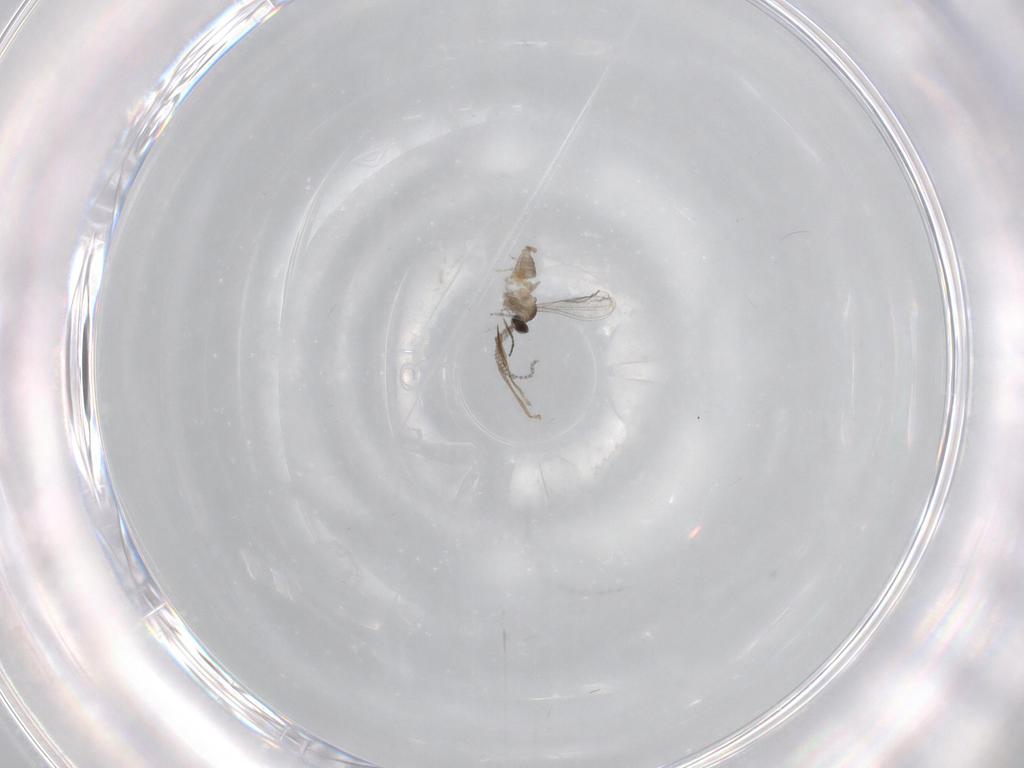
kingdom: Animalia
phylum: Arthropoda
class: Insecta
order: Diptera
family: Cecidomyiidae
